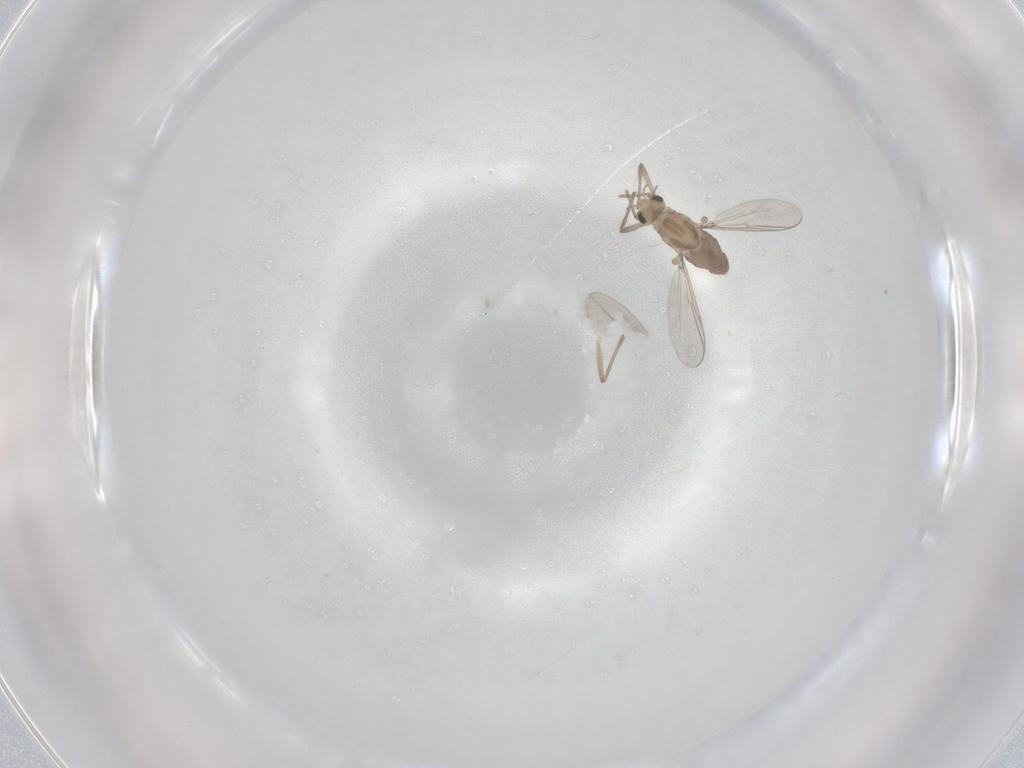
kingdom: Animalia
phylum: Arthropoda
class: Insecta
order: Diptera
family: Chironomidae
